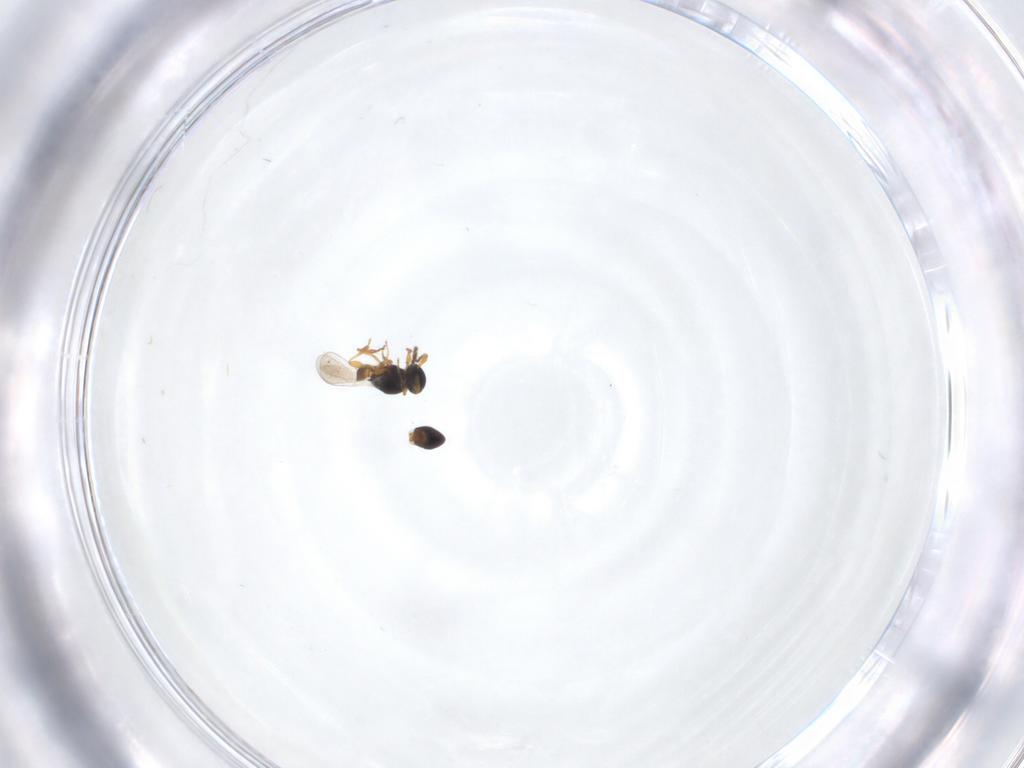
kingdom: Animalia
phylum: Arthropoda
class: Insecta
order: Hymenoptera
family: Platygastridae
